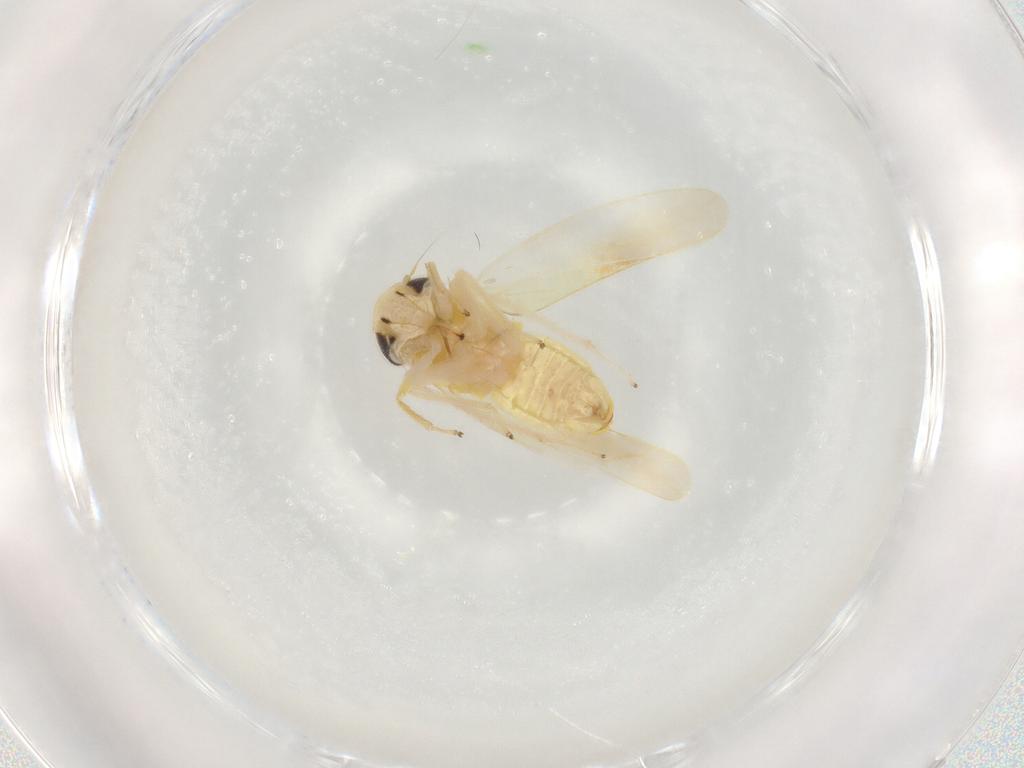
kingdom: Animalia
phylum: Arthropoda
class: Insecta
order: Hemiptera
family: Cicadellidae
